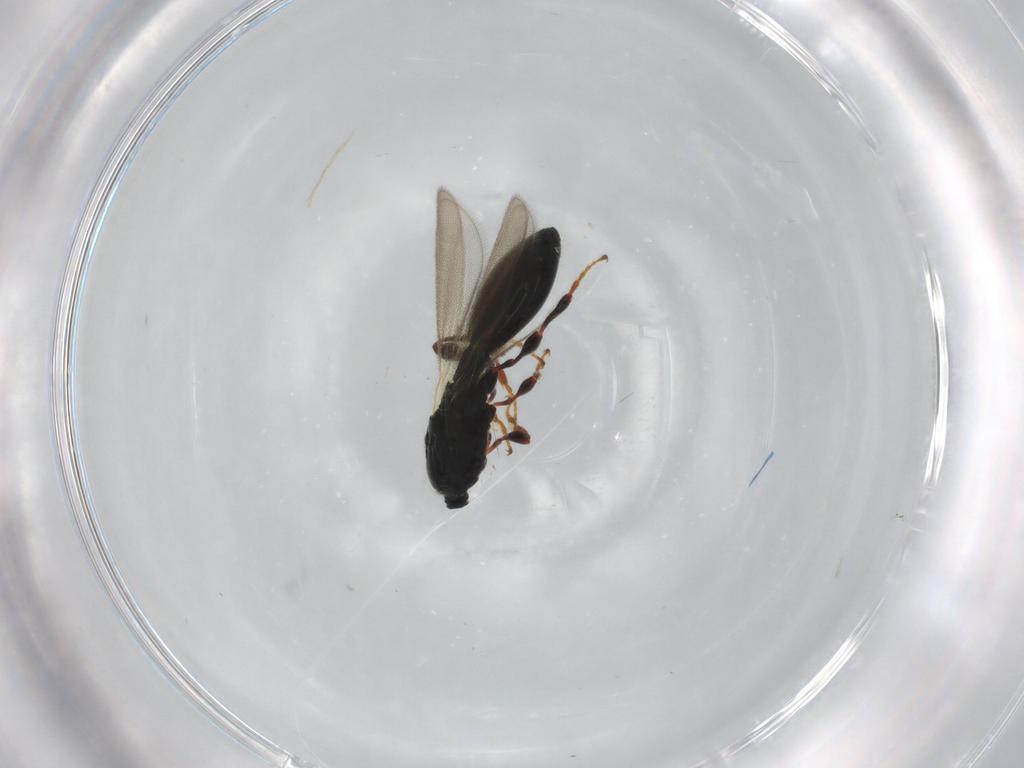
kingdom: Animalia
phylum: Arthropoda
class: Insecta
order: Hymenoptera
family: Diapriidae
